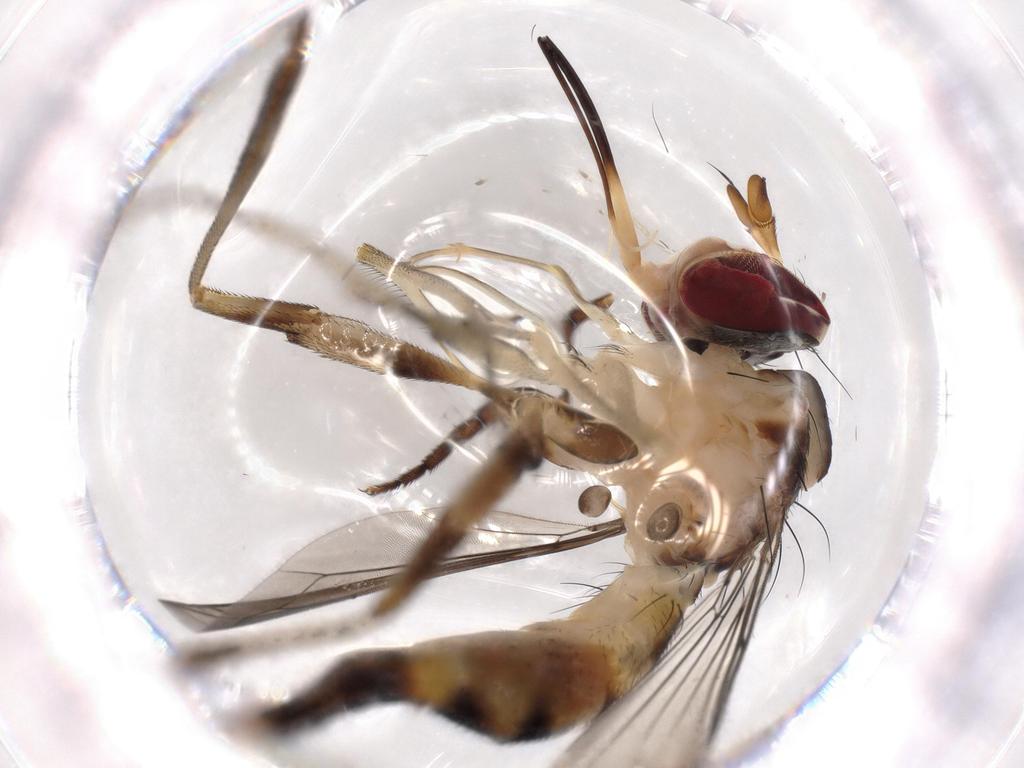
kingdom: Animalia
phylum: Arthropoda
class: Insecta
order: Diptera
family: Conopidae
